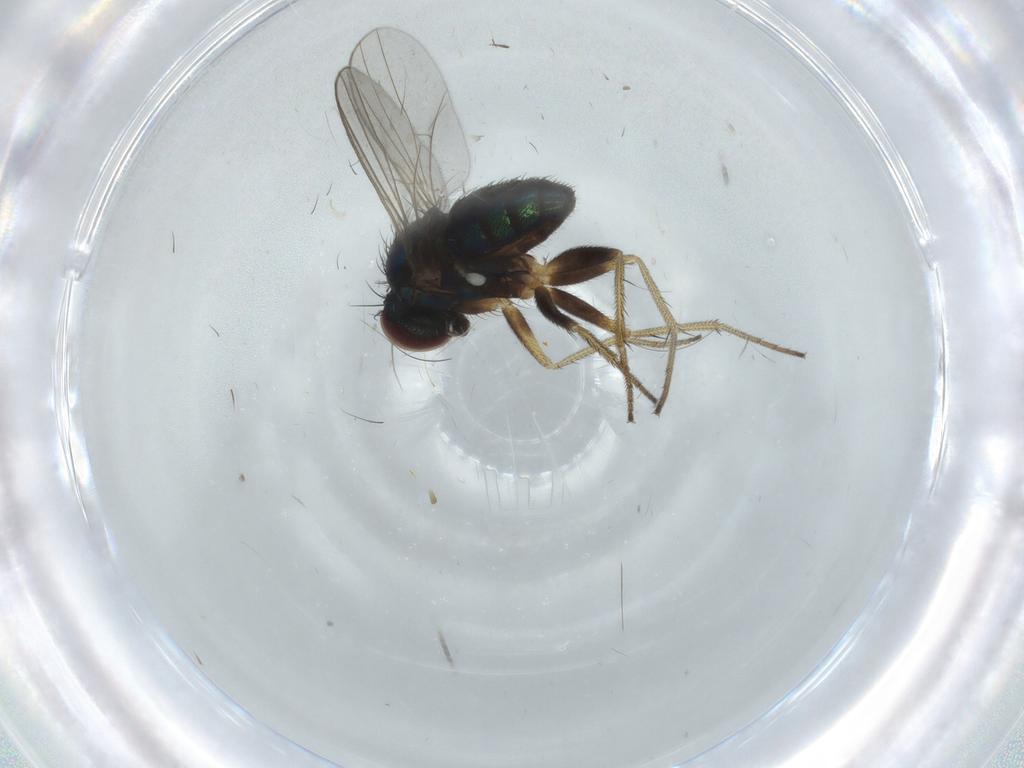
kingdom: Animalia
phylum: Arthropoda
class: Insecta
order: Diptera
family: Dolichopodidae
